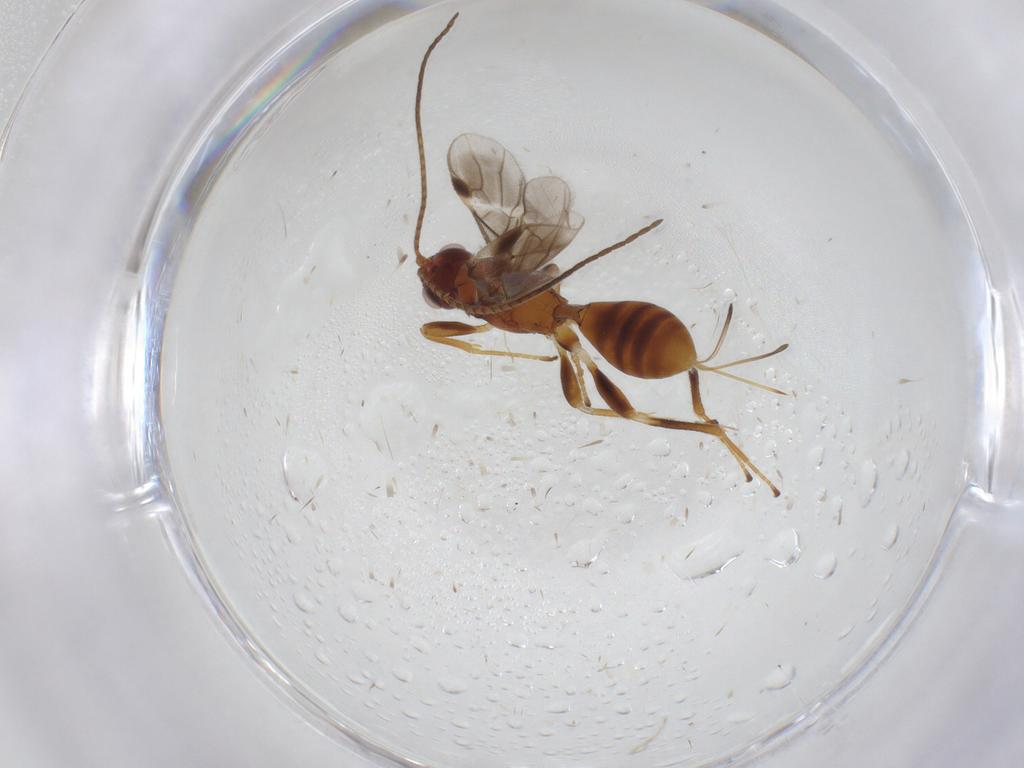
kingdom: Animalia
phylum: Arthropoda
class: Insecta
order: Hymenoptera
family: Braconidae
